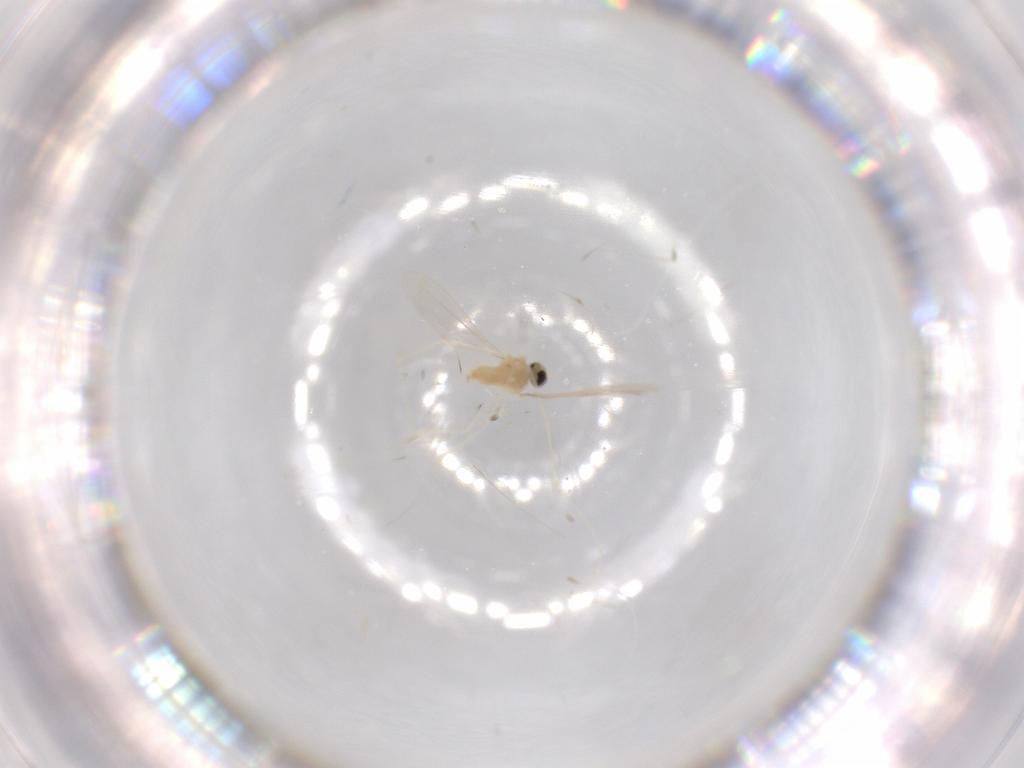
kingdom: Animalia
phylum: Arthropoda
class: Insecta
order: Diptera
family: Cecidomyiidae
